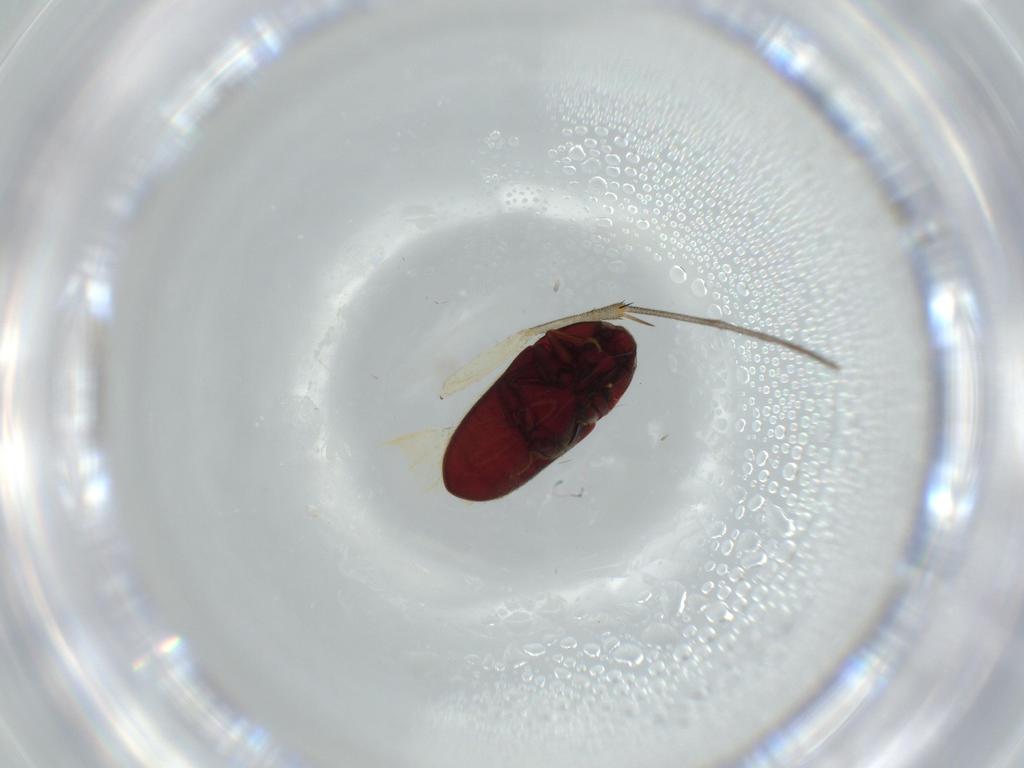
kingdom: Animalia
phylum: Arthropoda
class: Insecta
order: Coleoptera
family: Throscidae
